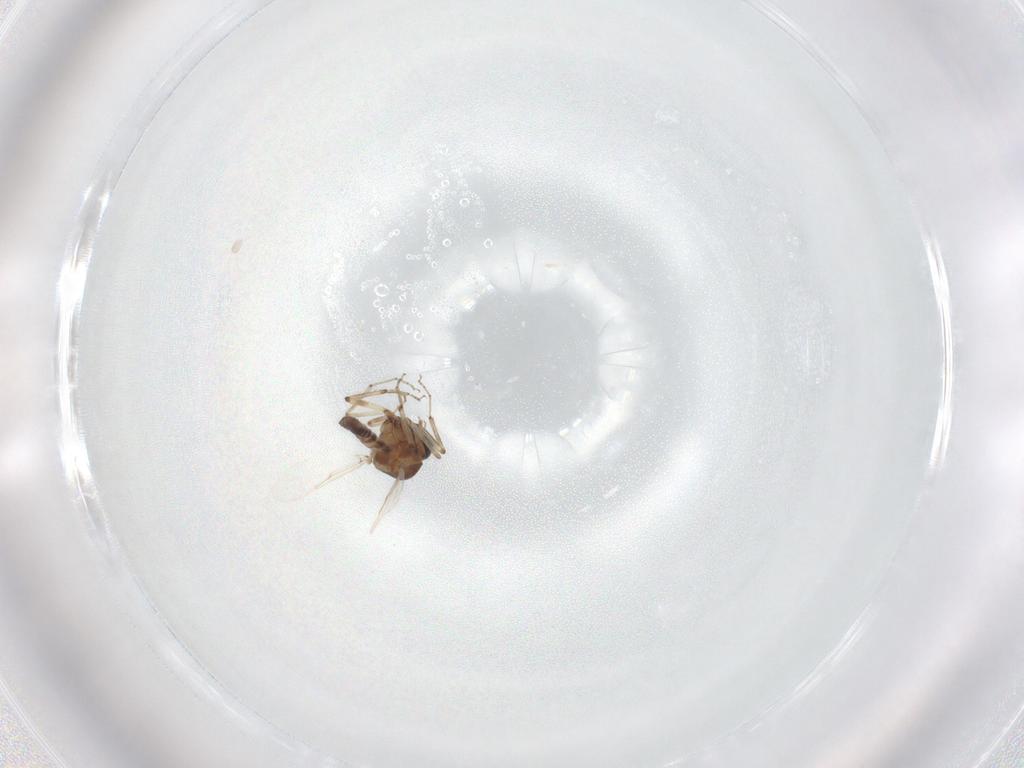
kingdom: Animalia
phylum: Arthropoda
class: Insecta
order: Diptera
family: Ceratopogonidae
